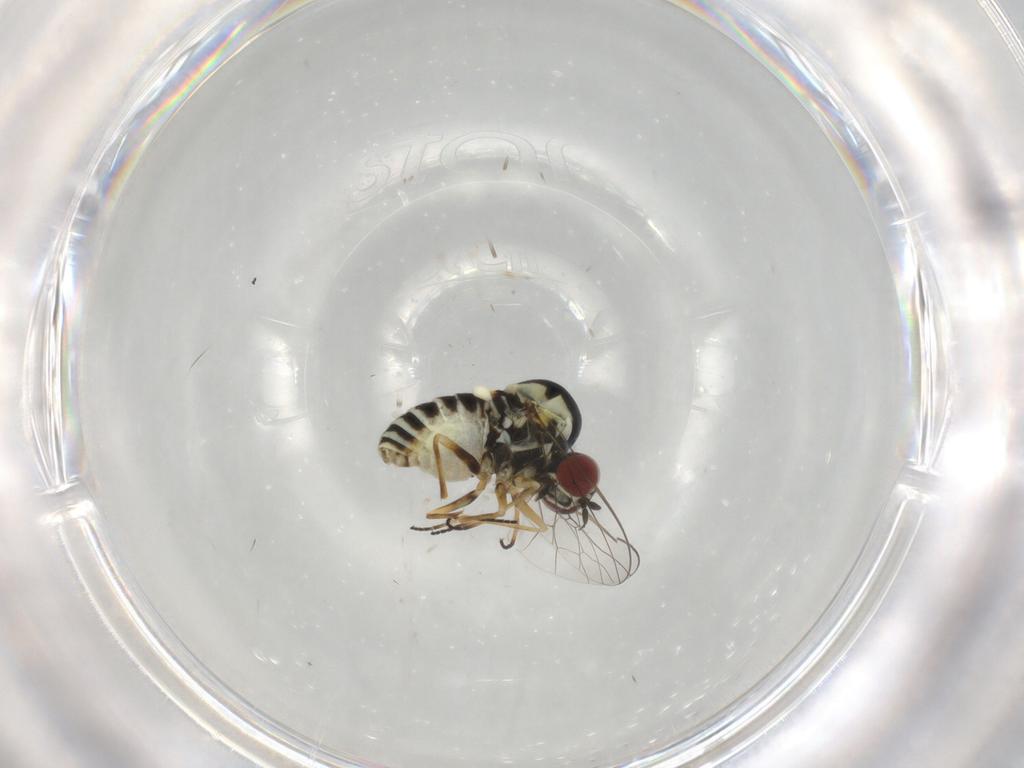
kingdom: Animalia
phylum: Arthropoda
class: Insecta
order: Diptera
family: Bombyliidae
